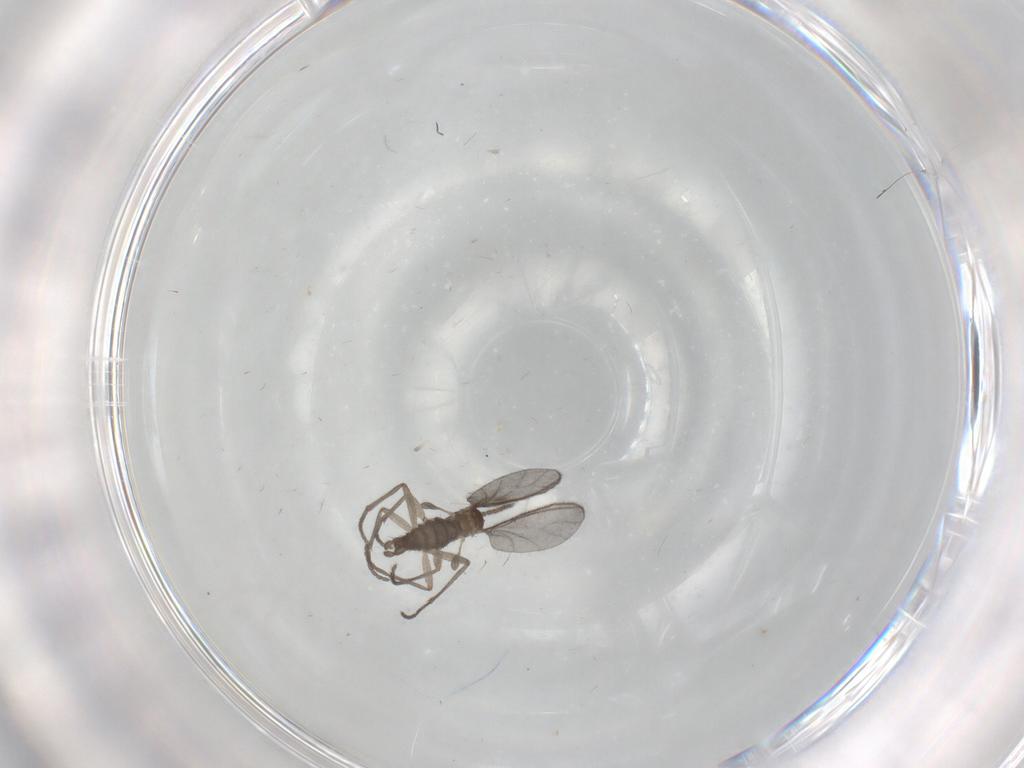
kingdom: Animalia
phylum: Arthropoda
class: Insecta
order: Diptera
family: Sciaridae
